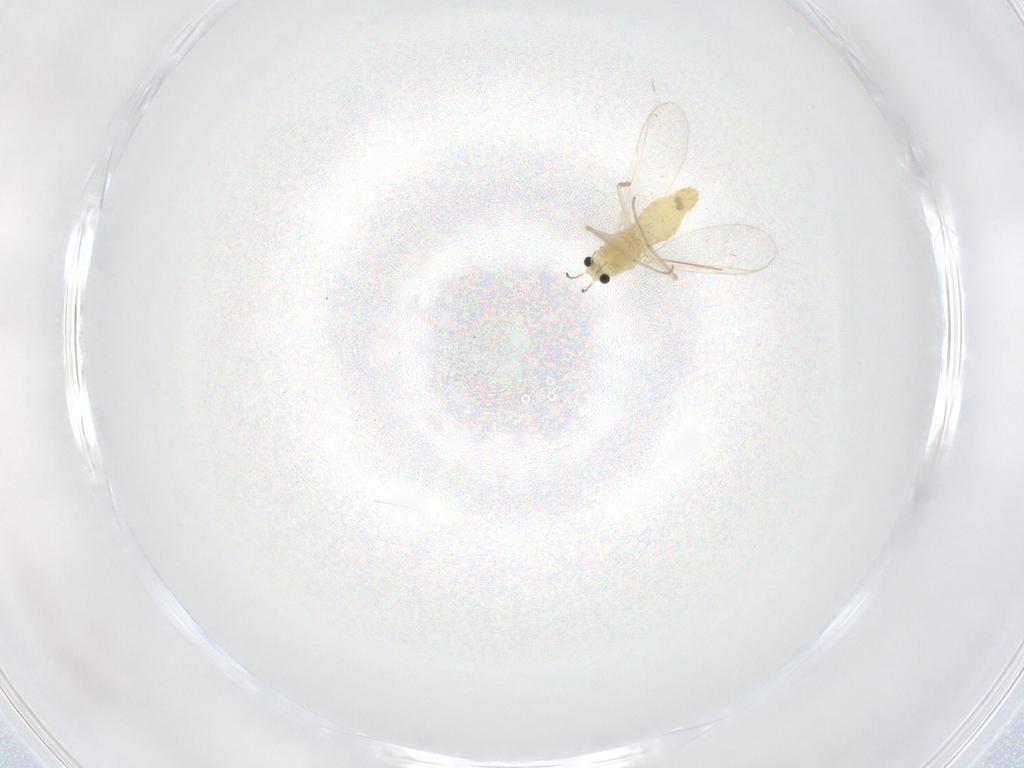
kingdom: Animalia
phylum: Arthropoda
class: Insecta
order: Diptera
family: Chironomidae
